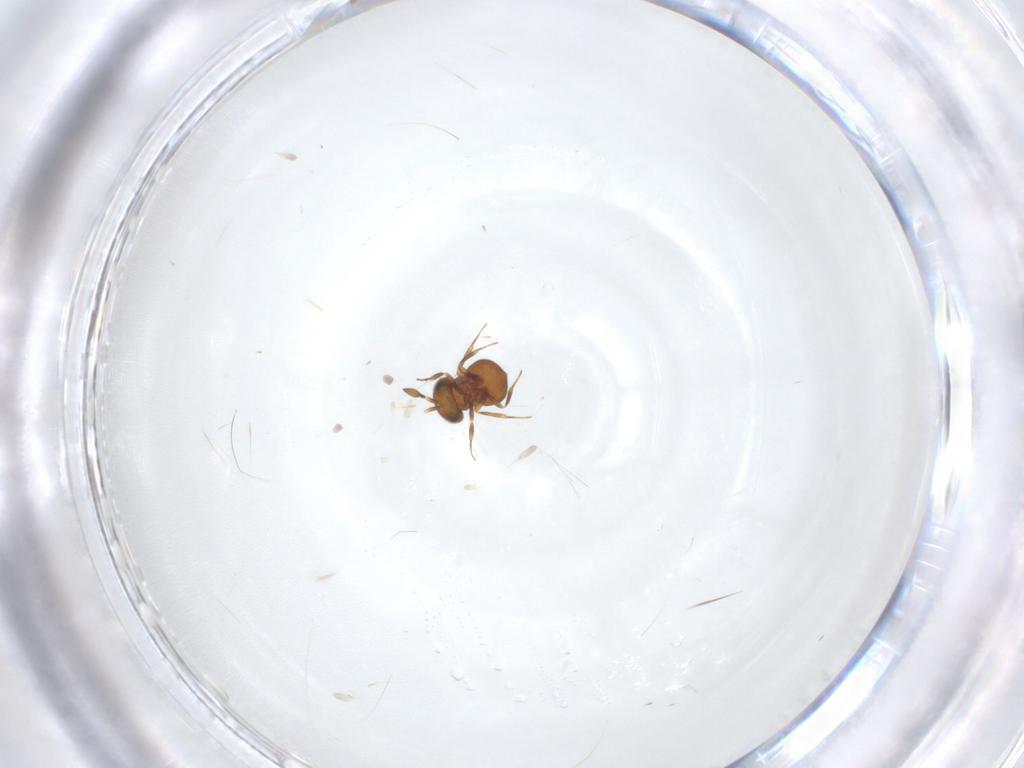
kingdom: Animalia
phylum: Arthropoda
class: Insecta
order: Hymenoptera
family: Scelionidae
